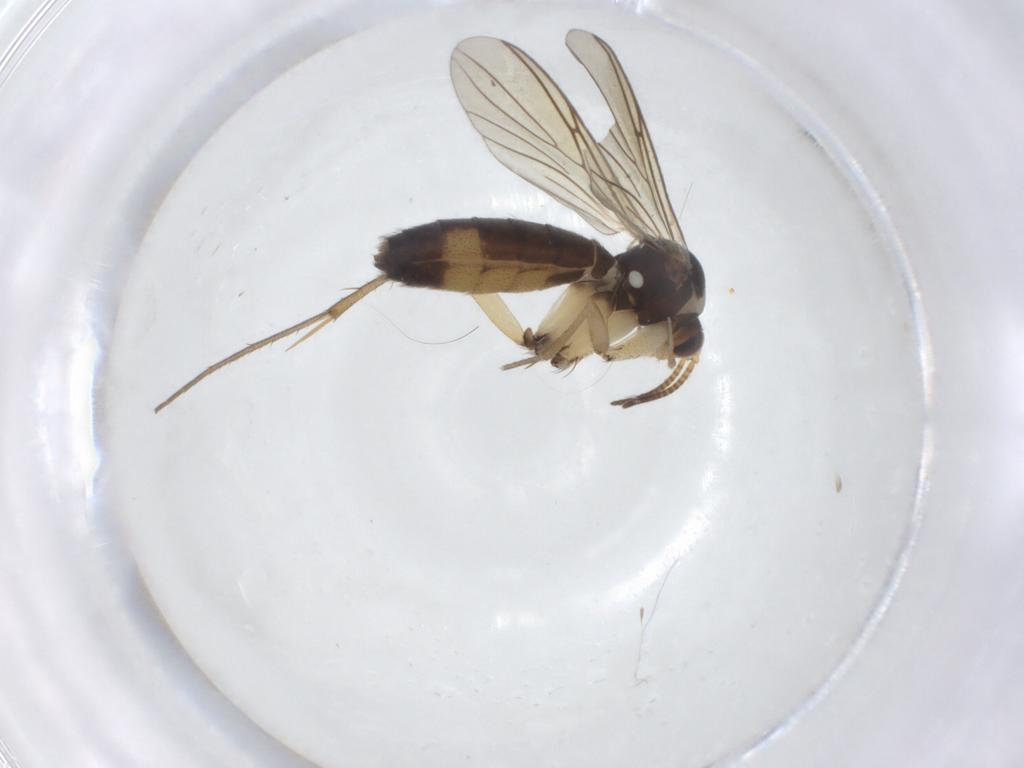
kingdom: Animalia
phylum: Arthropoda
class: Insecta
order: Diptera
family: Mycetophilidae
